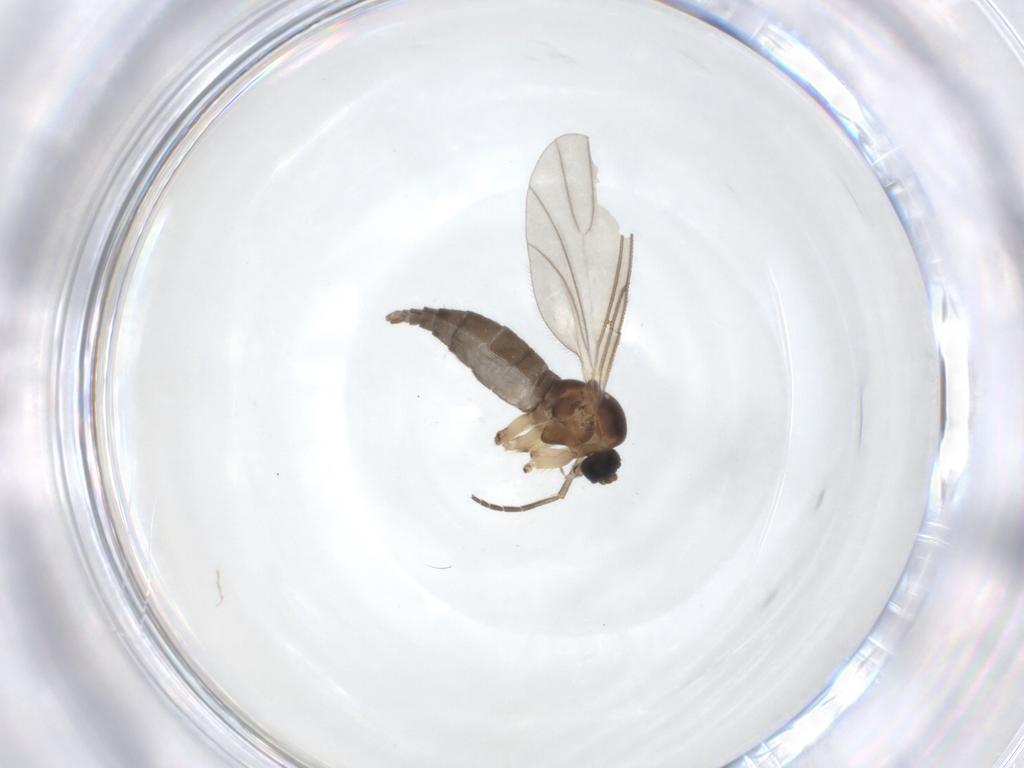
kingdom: Animalia
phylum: Arthropoda
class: Insecta
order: Diptera
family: Sciaridae
